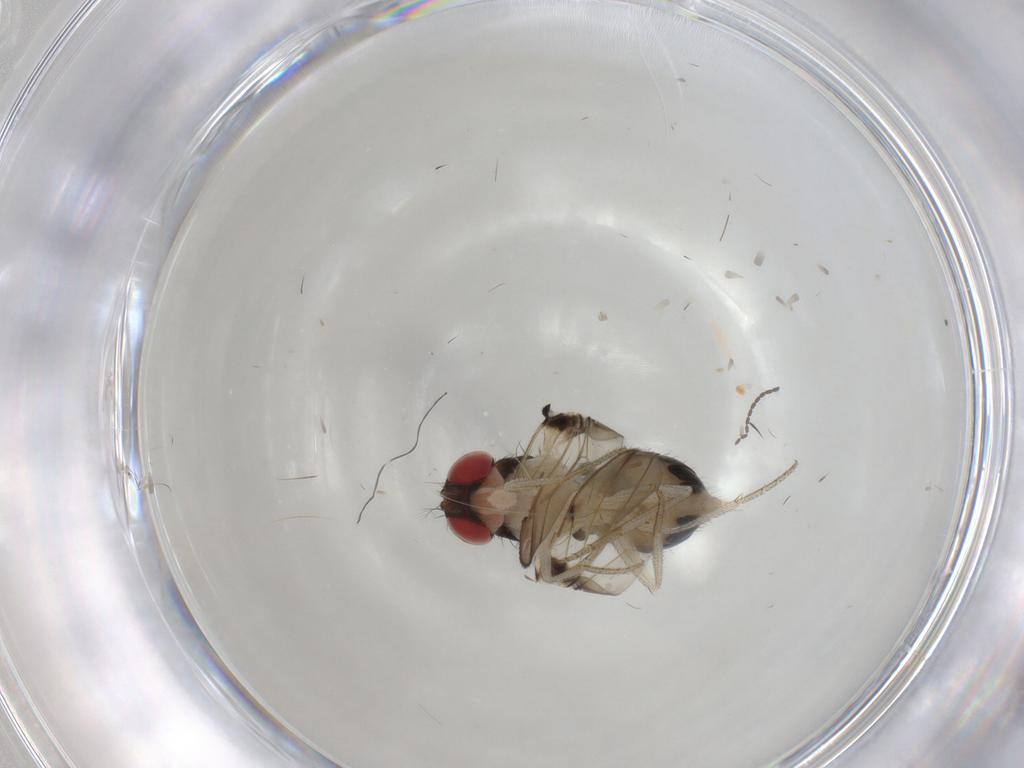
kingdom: Animalia
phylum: Arthropoda
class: Insecta
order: Diptera
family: Drosophilidae
